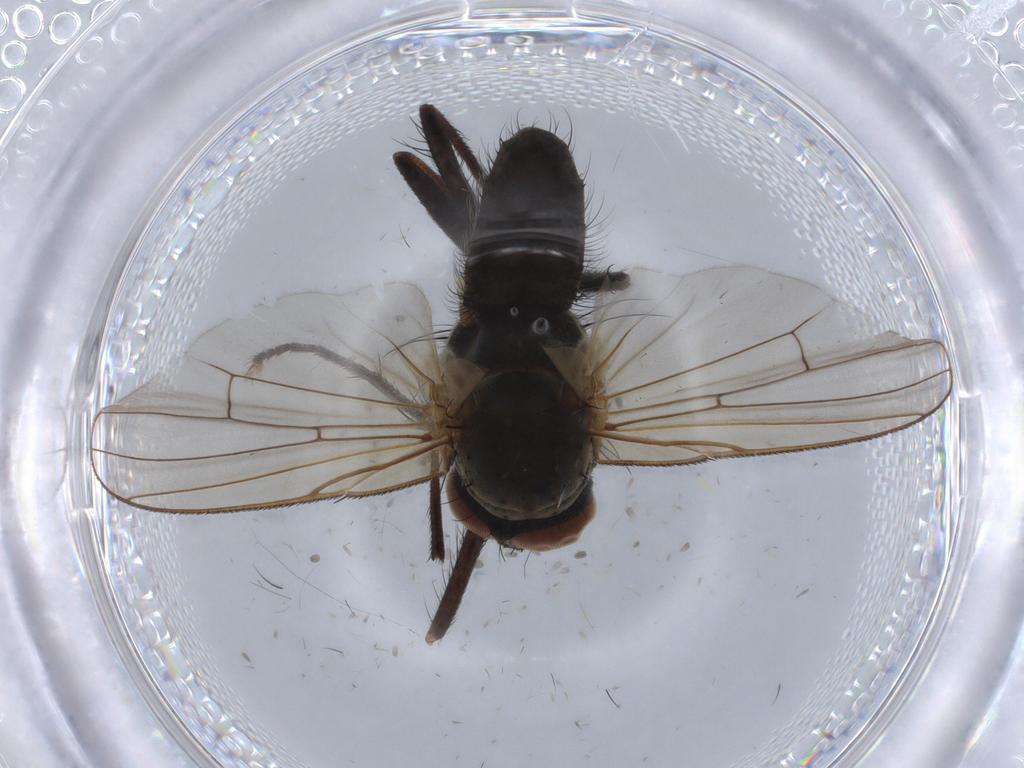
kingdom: Animalia
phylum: Arthropoda
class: Insecta
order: Diptera
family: Anthomyiidae
